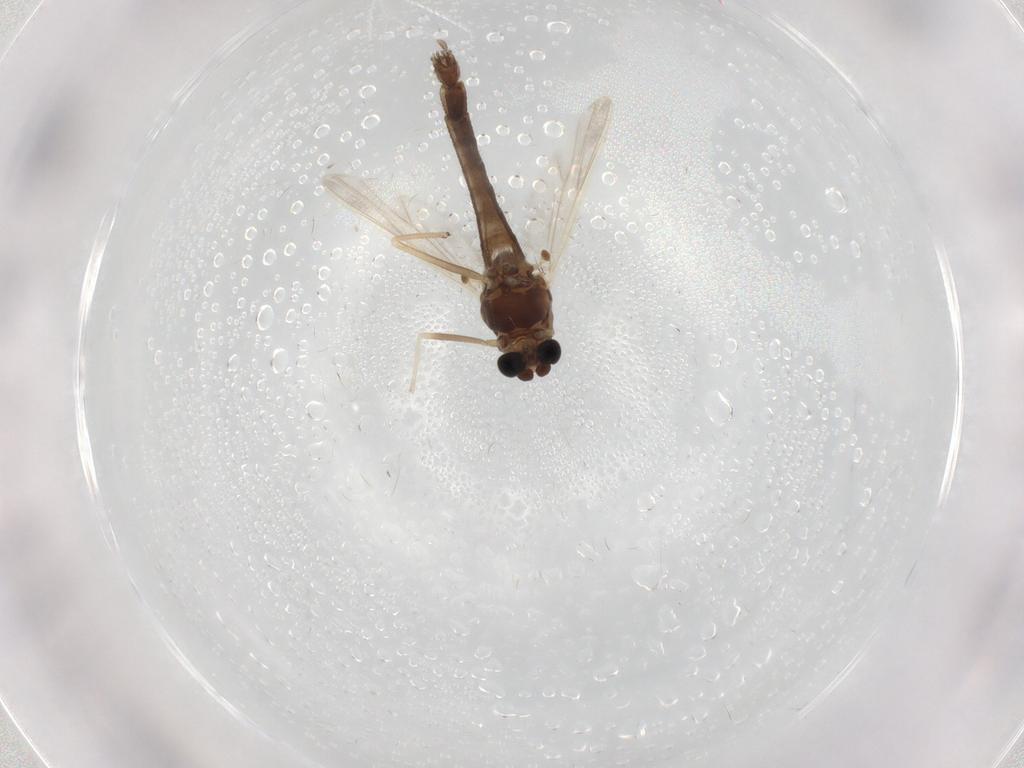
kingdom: Animalia
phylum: Arthropoda
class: Insecta
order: Diptera
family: Chironomidae
